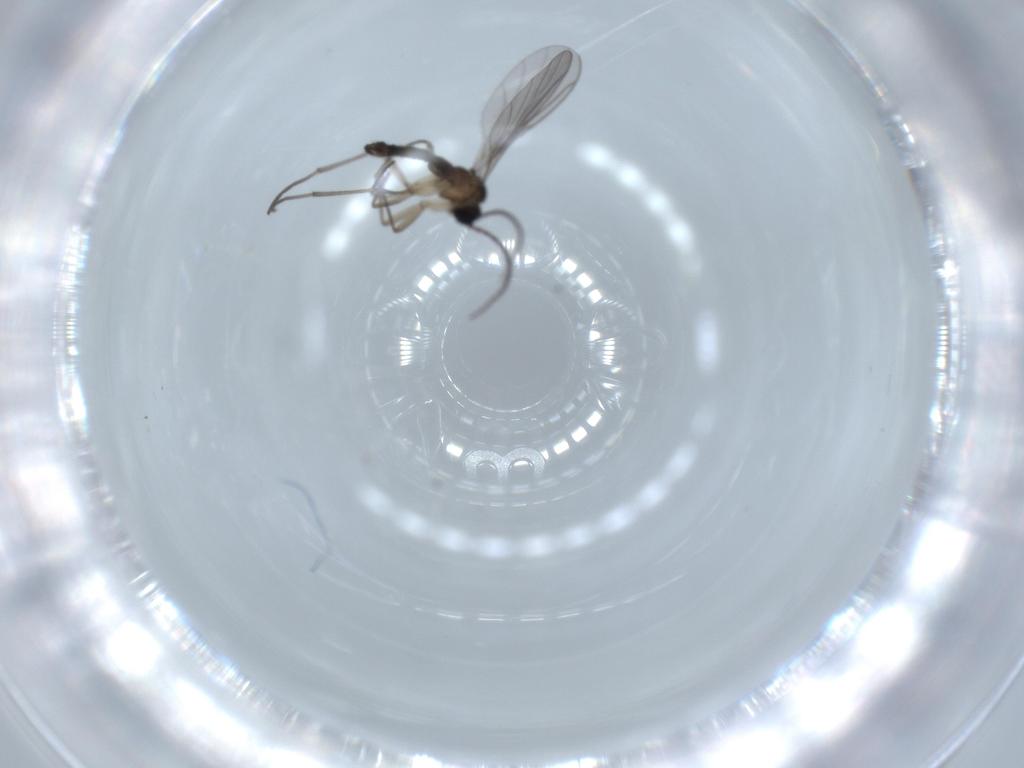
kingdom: Animalia
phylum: Arthropoda
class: Insecta
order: Diptera
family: Sciaridae
